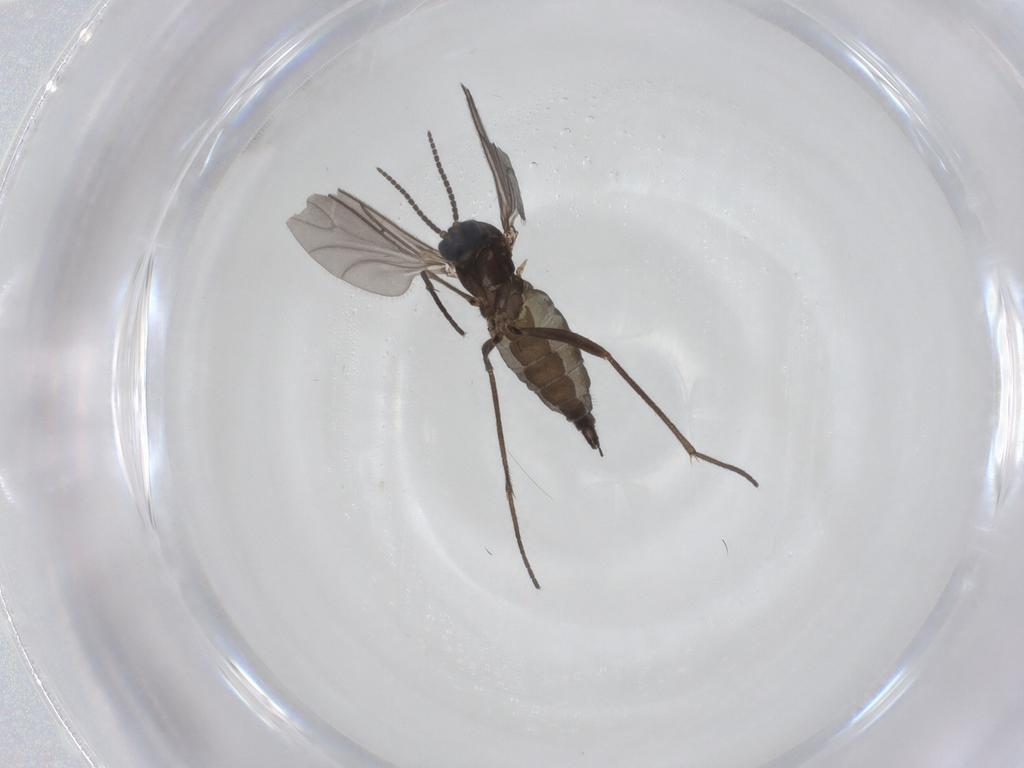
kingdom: Animalia
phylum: Arthropoda
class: Insecta
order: Diptera
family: Sciaridae
